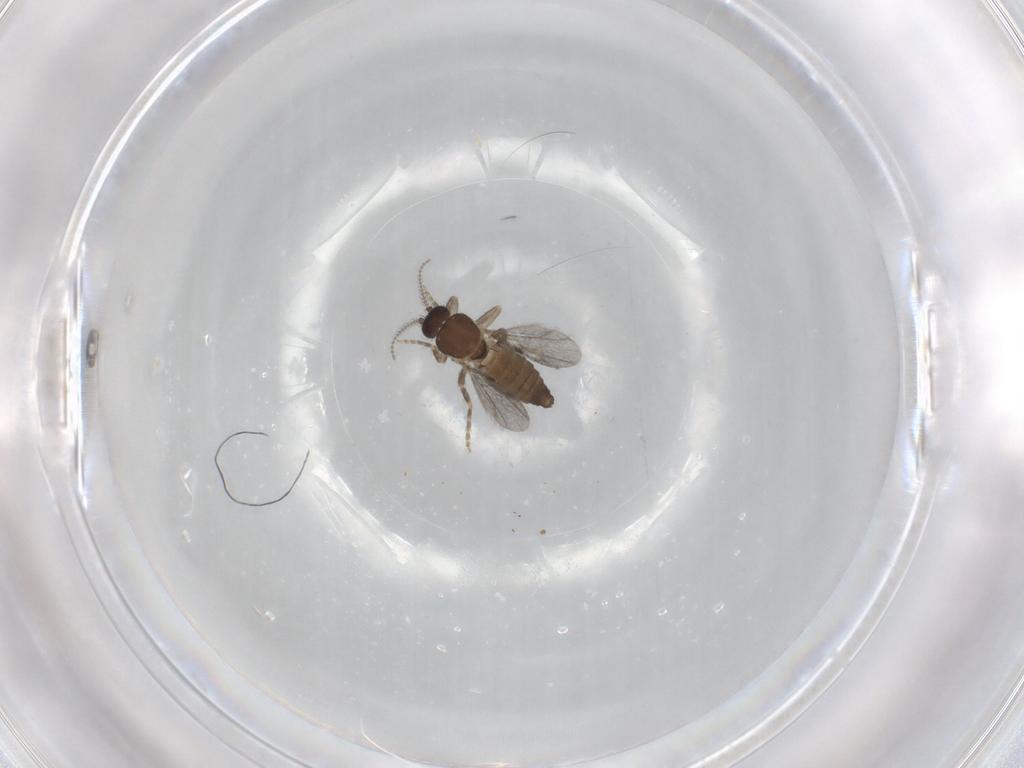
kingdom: Animalia
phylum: Arthropoda
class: Insecta
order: Diptera
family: Ceratopogonidae
